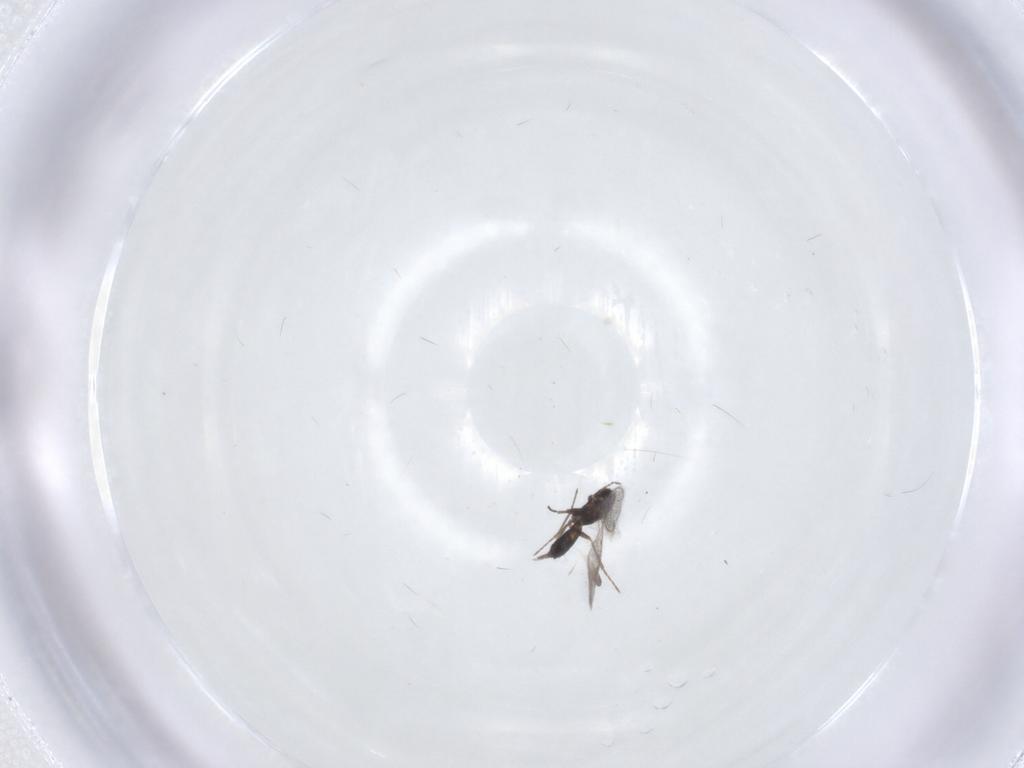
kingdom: Animalia
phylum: Arthropoda
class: Insecta
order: Hymenoptera
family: Eulophidae
